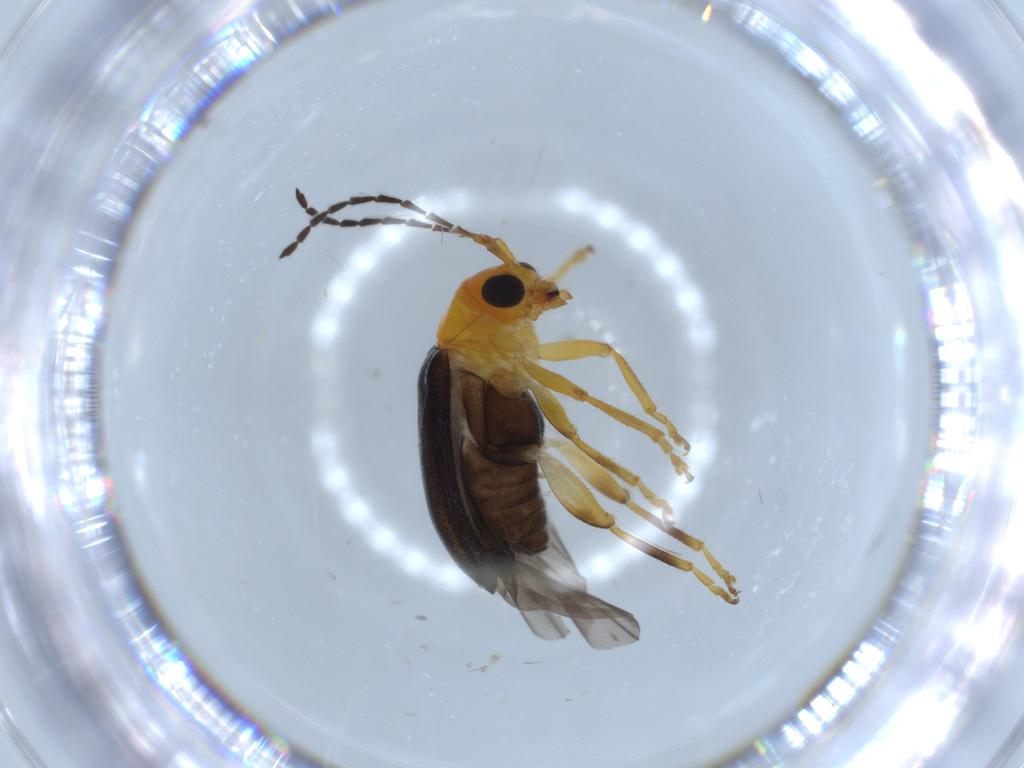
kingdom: Animalia
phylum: Arthropoda
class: Insecta
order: Coleoptera
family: Chrysomelidae
